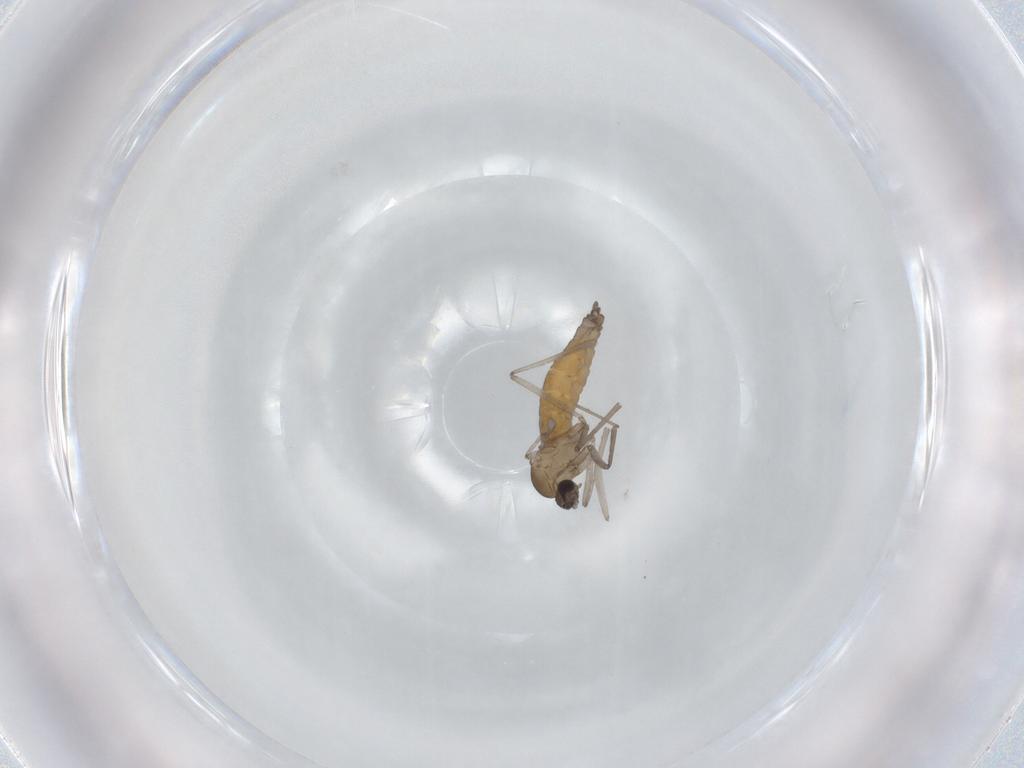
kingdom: Animalia
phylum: Arthropoda
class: Insecta
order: Diptera
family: Cecidomyiidae
